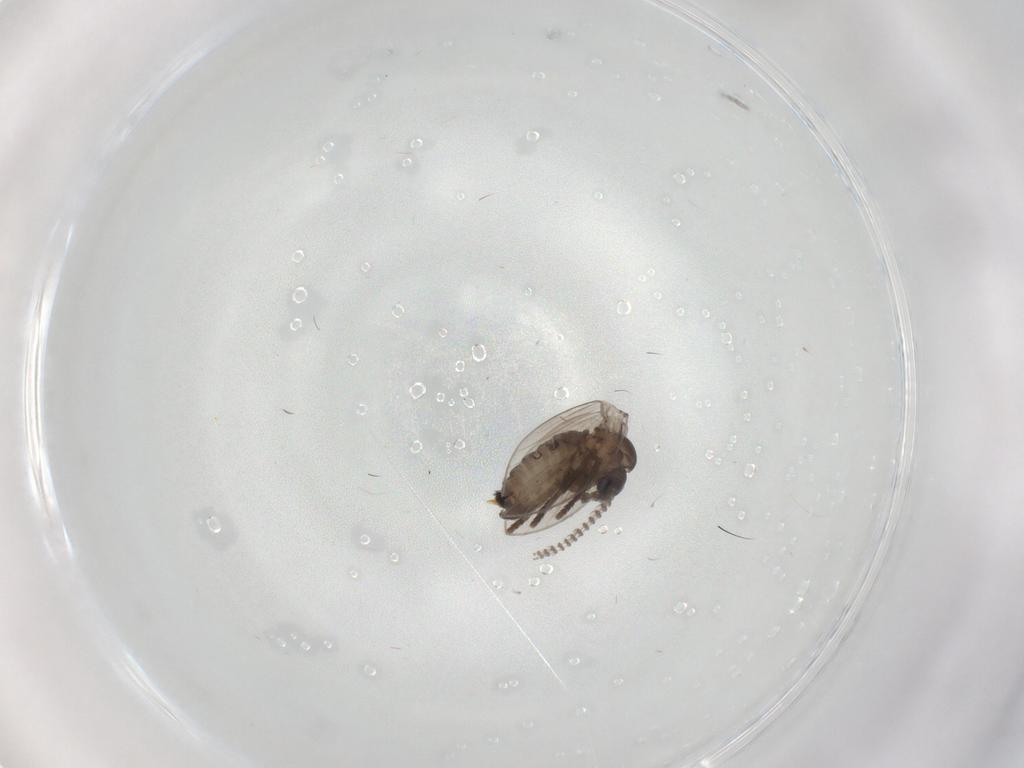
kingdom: Animalia
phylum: Arthropoda
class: Insecta
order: Diptera
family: Psychodidae
